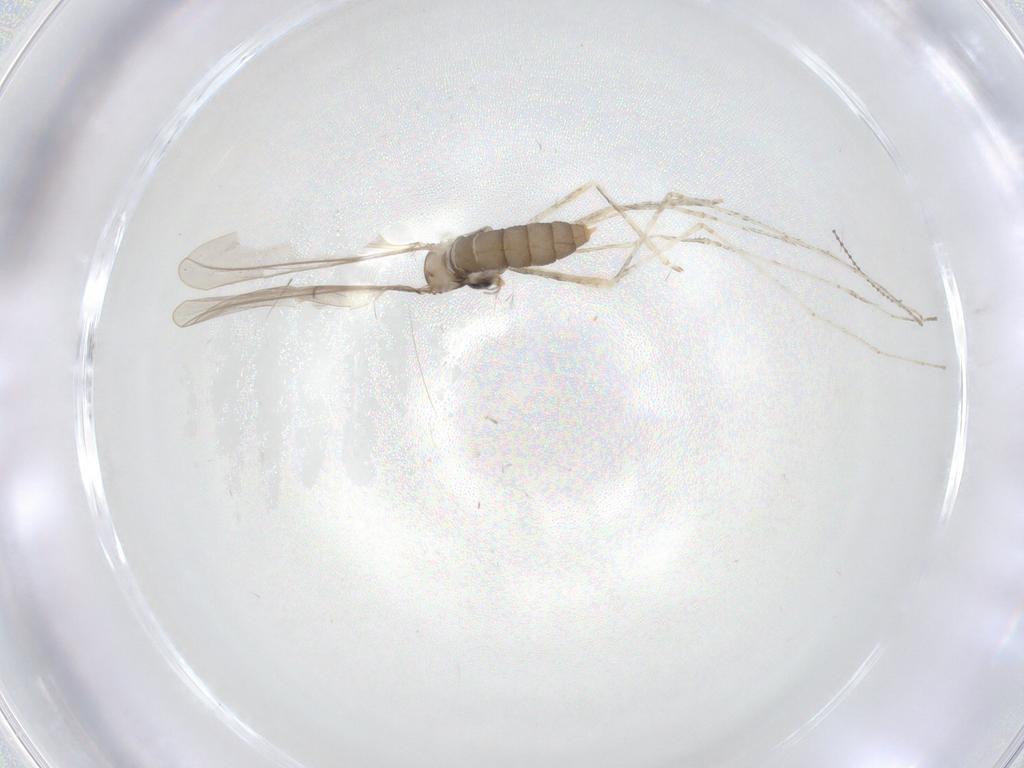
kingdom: Animalia
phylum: Arthropoda
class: Insecta
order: Diptera
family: Cecidomyiidae
